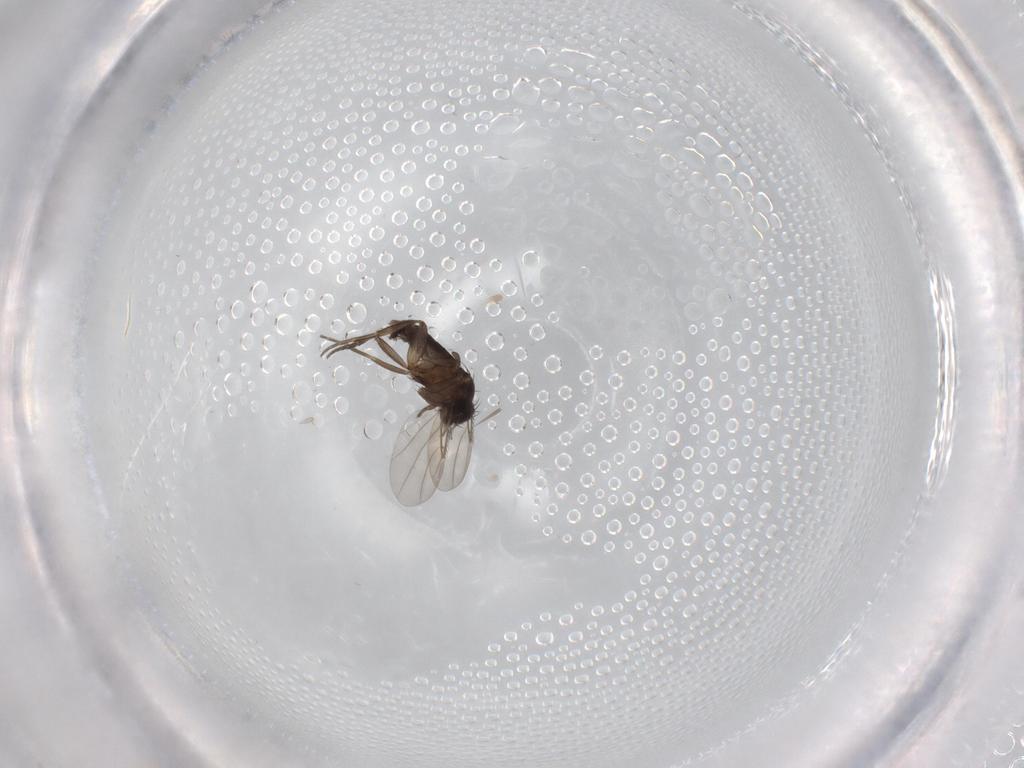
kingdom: Animalia
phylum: Arthropoda
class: Insecta
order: Diptera
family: Phoridae
